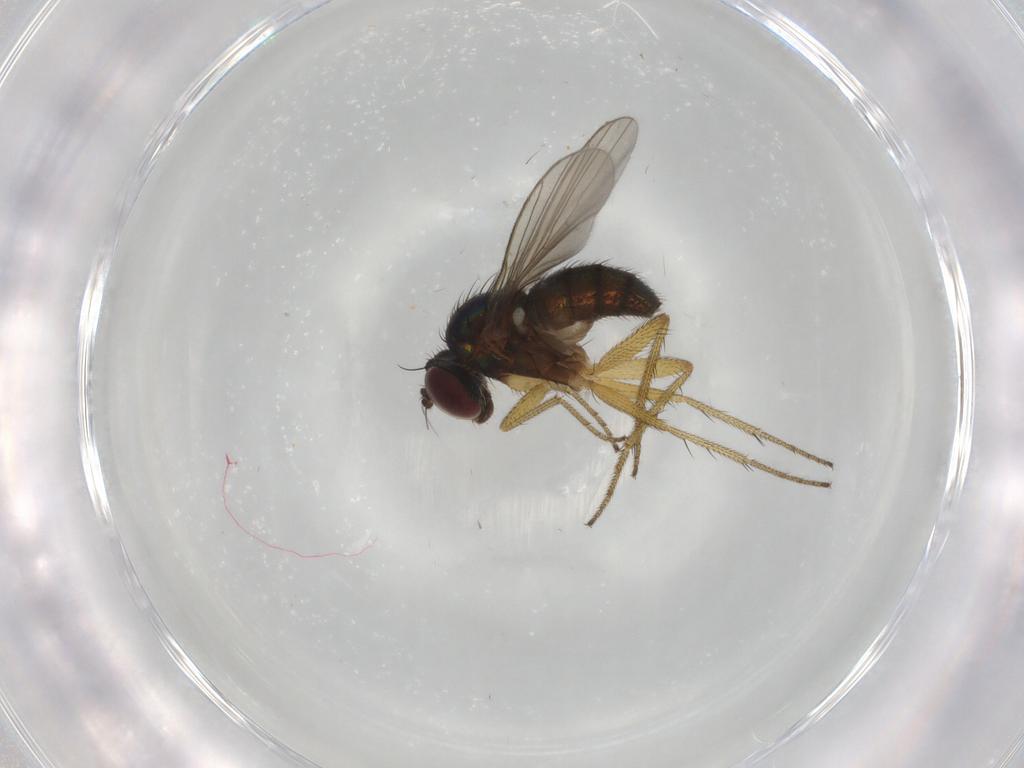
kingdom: Animalia
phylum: Arthropoda
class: Insecta
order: Diptera
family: Dolichopodidae
